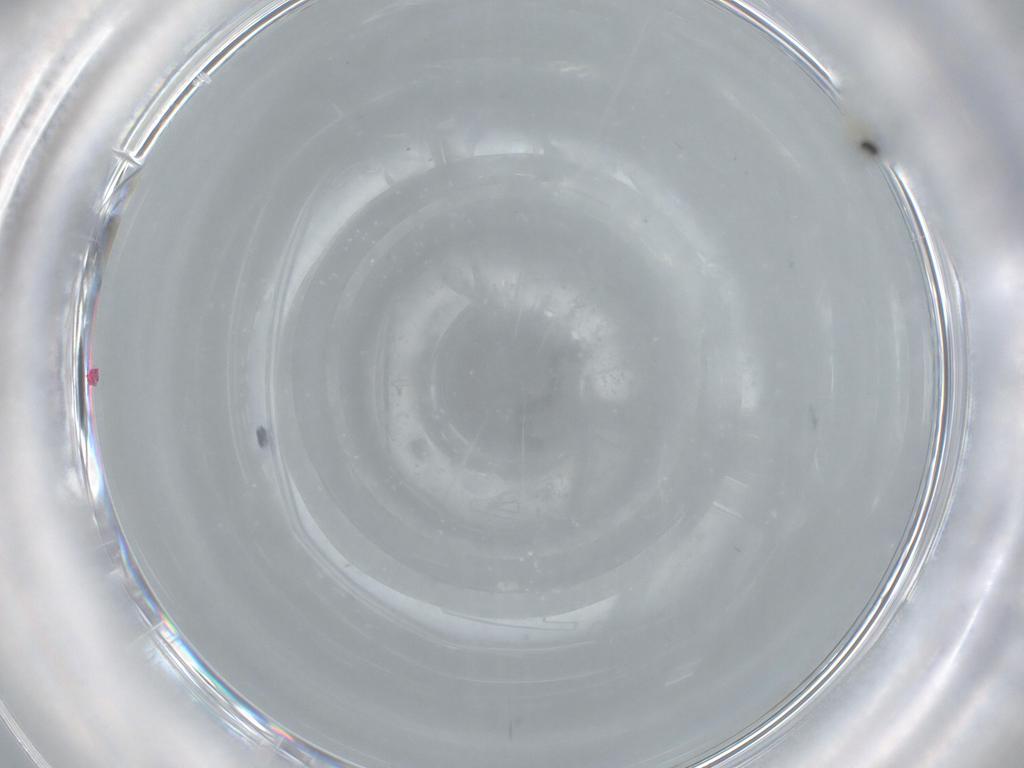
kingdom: Animalia
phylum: Arthropoda
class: Insecta
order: Diptera
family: Cecidomyiidae
